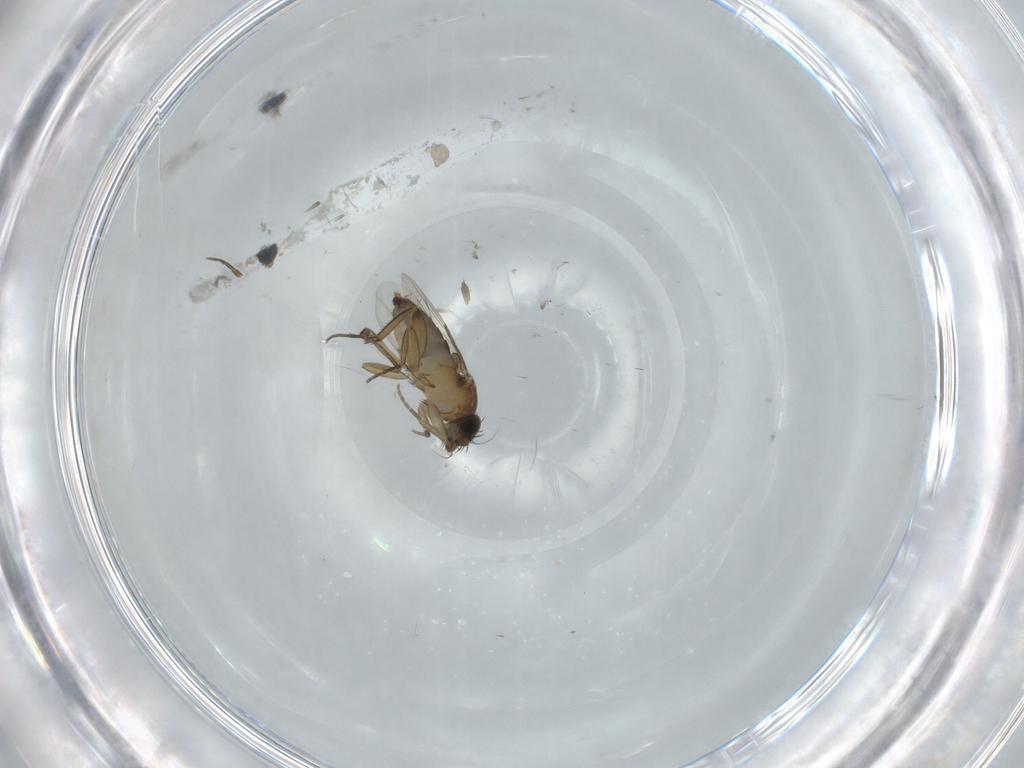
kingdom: Animalia
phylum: Arthropoda
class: Insecta
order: Diptera
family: Phoridae
